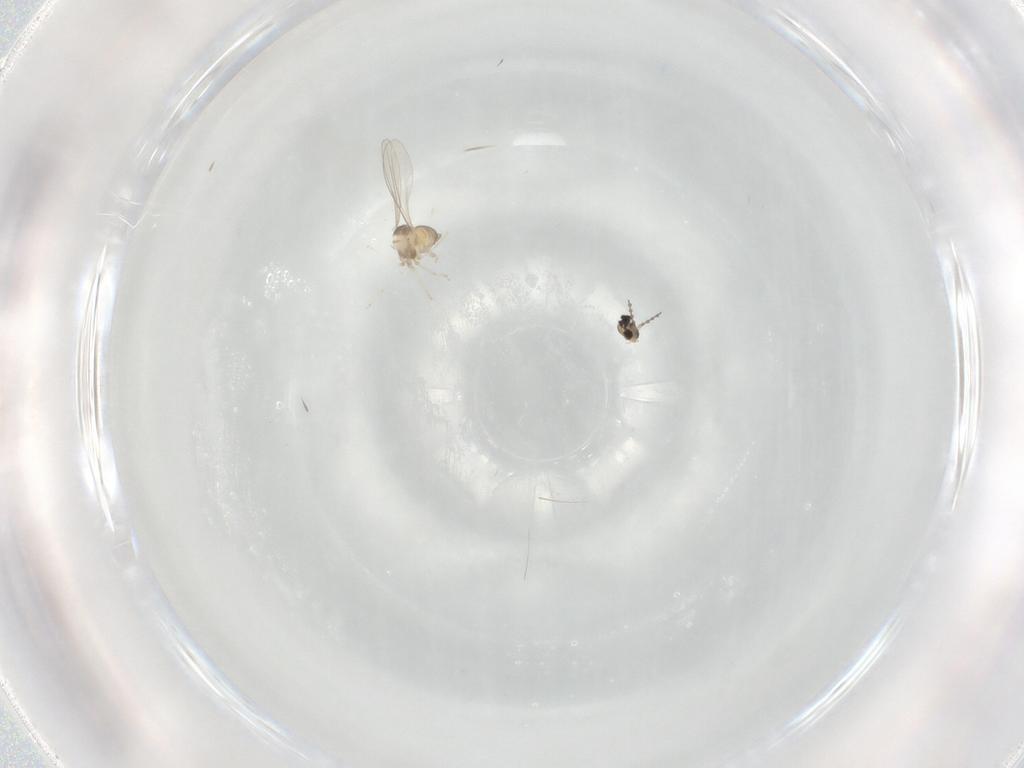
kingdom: Animalia
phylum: Arthropoda
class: Insecta
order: Diptera
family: Cecidomyiidae
